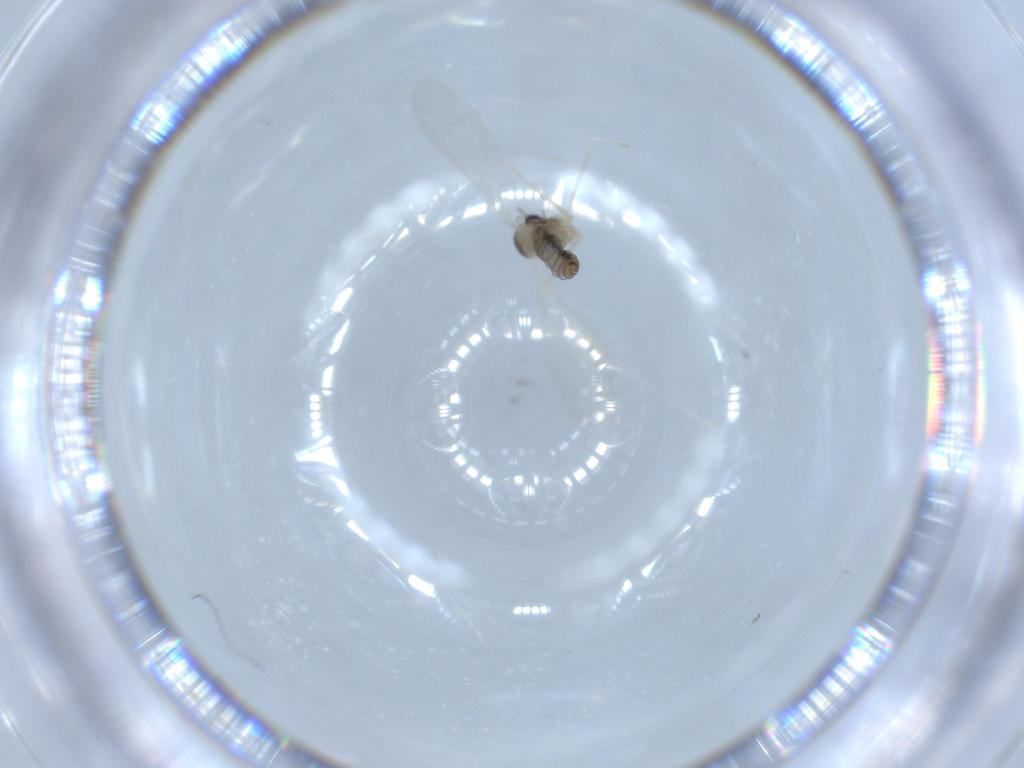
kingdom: Animalia
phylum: Arthropoda
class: Insecta
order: Diptera
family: Cecidomyiidae
